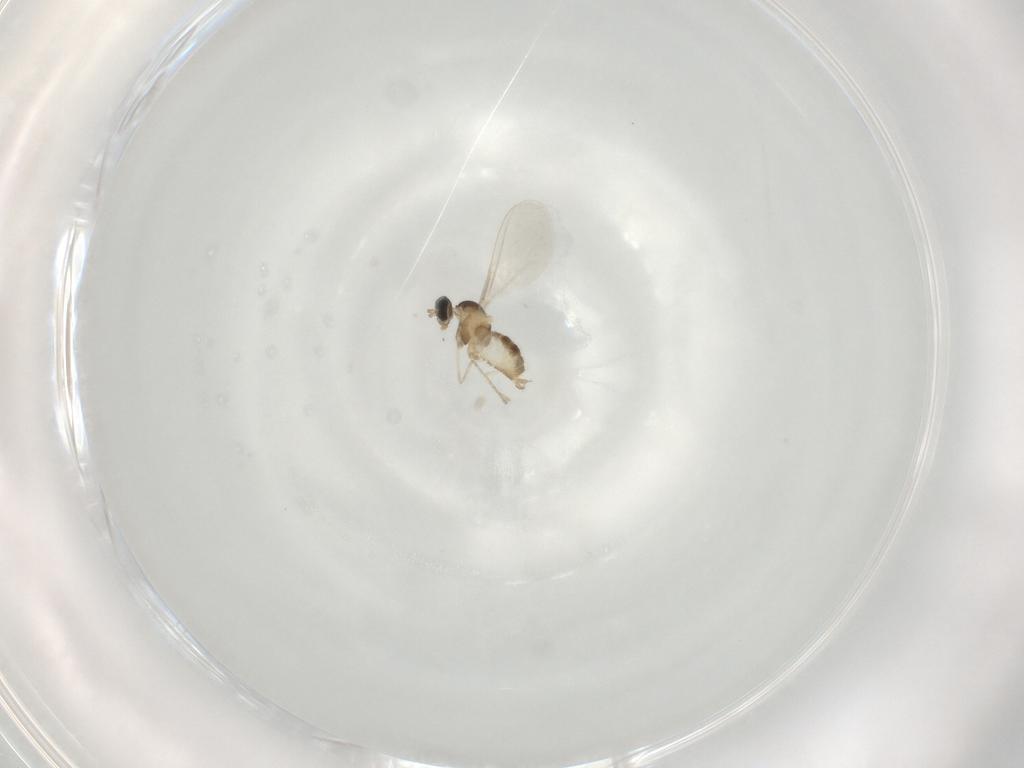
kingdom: Animalia
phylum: Arthropoda
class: Insecta
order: Diptera
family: Cecidomyiidae
